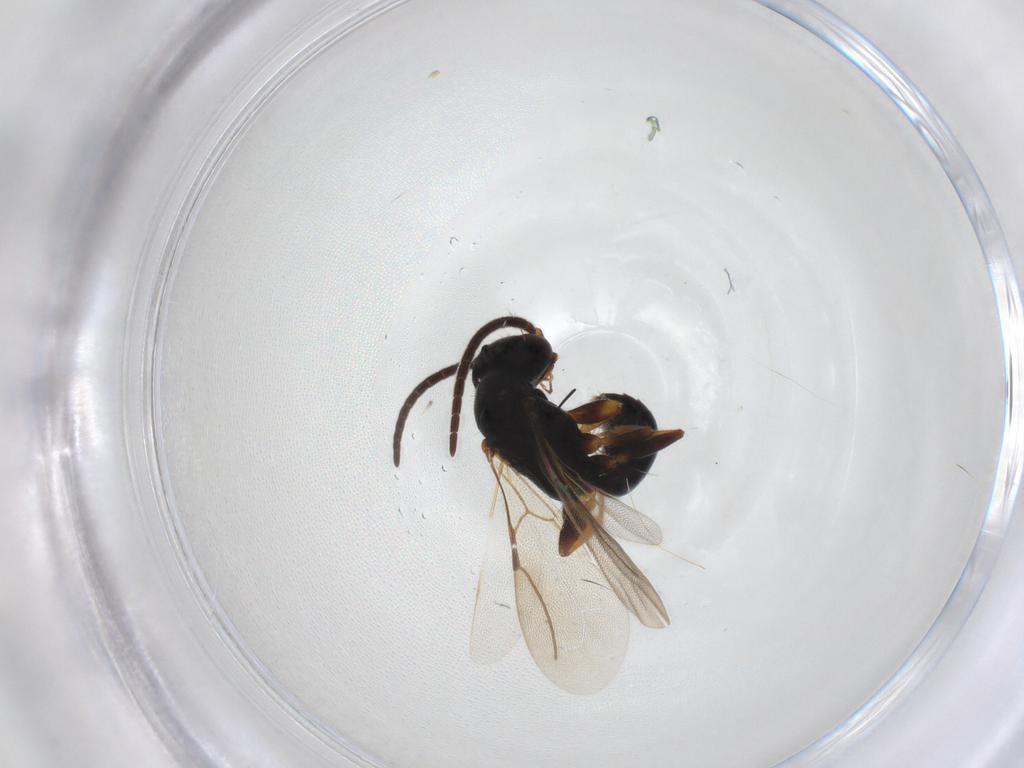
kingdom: Animalia
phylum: Arthropoda
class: Insecta
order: Hymenoptera
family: Bethylidae
